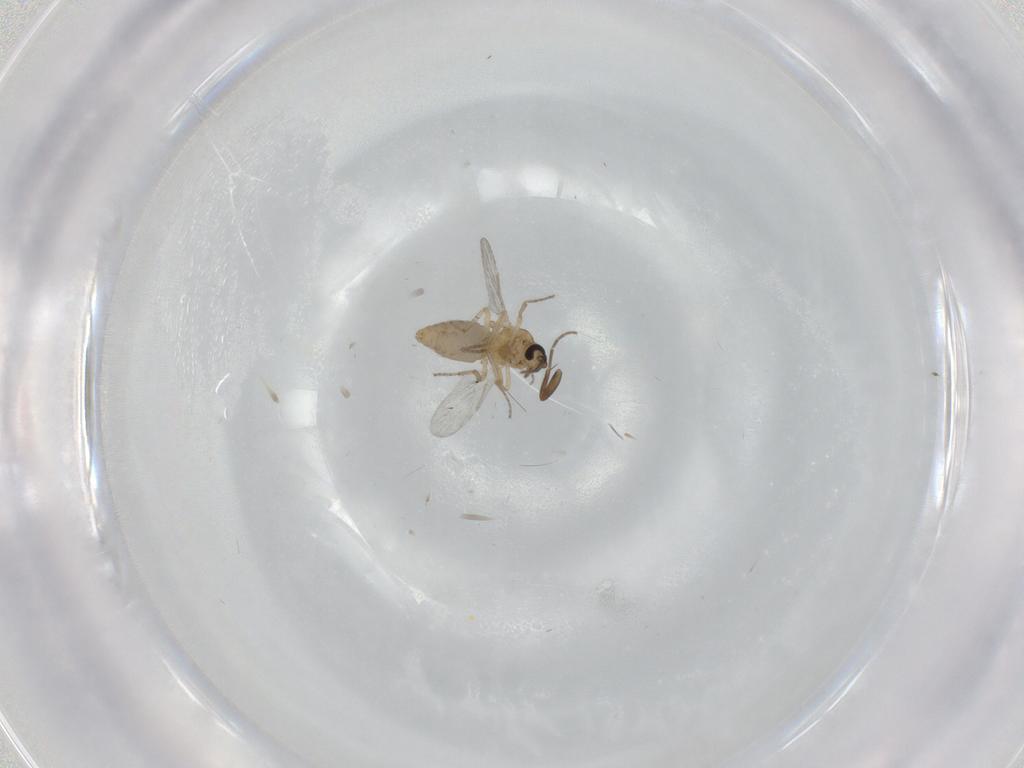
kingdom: Animalia
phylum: Arthropoda
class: Insecta
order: Diptera
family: Ceratopogonidae
